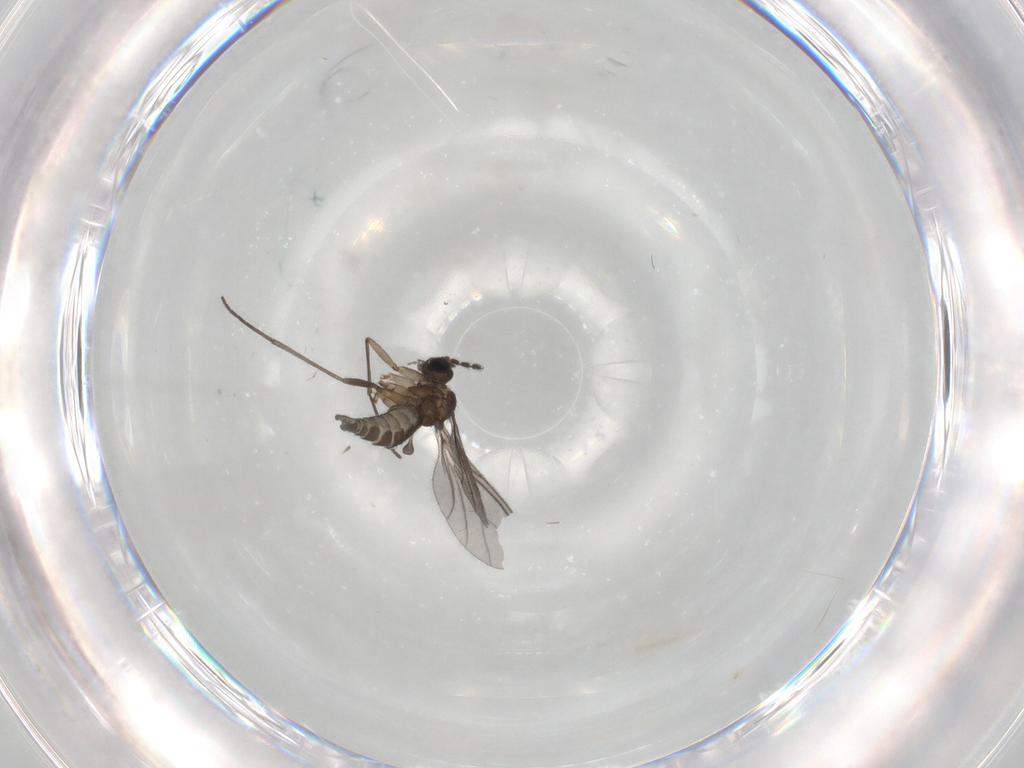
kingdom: Animalia
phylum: Arthropoda
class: Insecta
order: Diptera
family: Sciaridae
